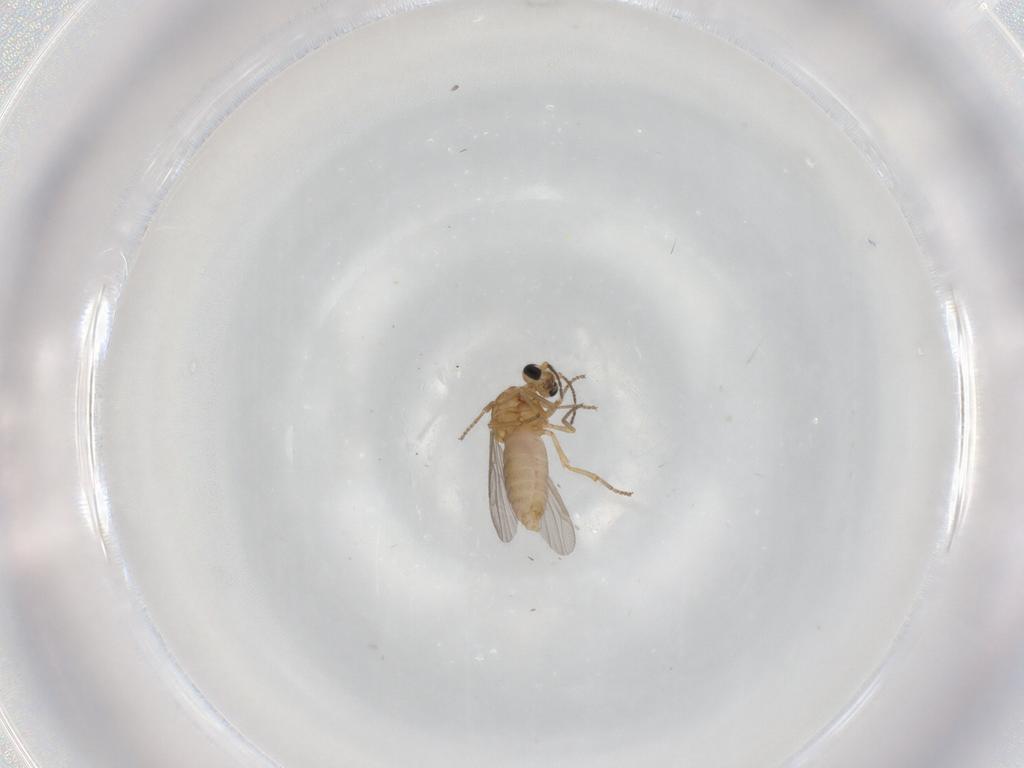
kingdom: Animalia
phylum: Arthropoda
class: Insecta
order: Diptera
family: Ceratopogonidae
